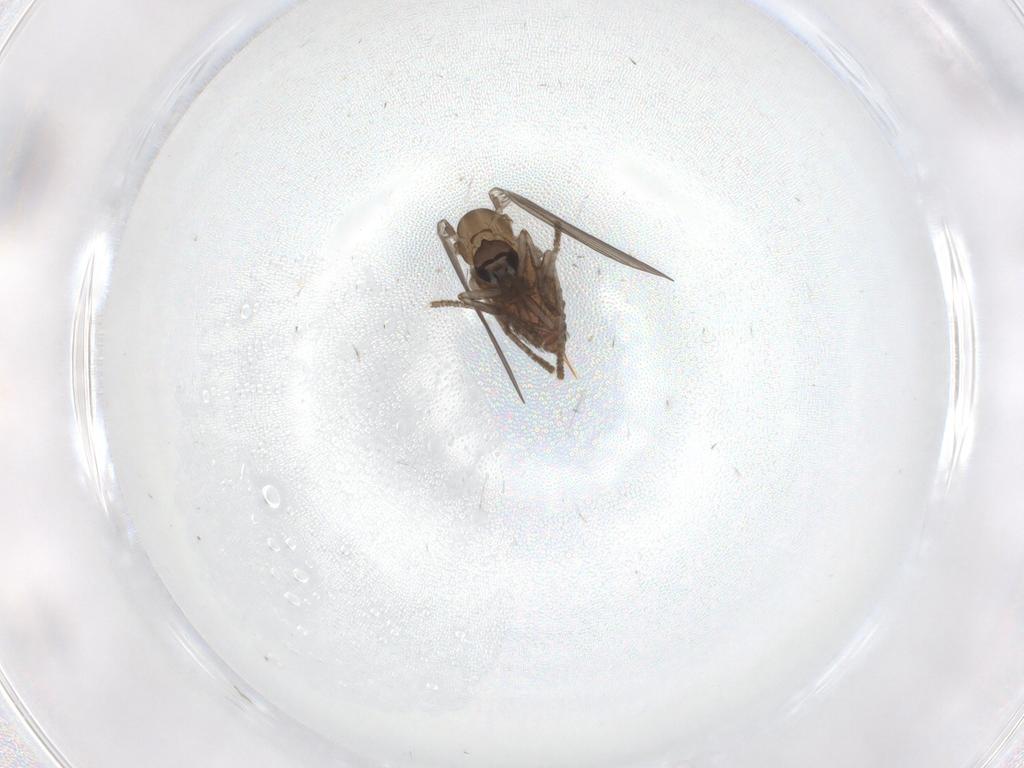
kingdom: Animalia
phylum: Arthropoda
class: Insecta
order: Diptera
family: Psychodidae
